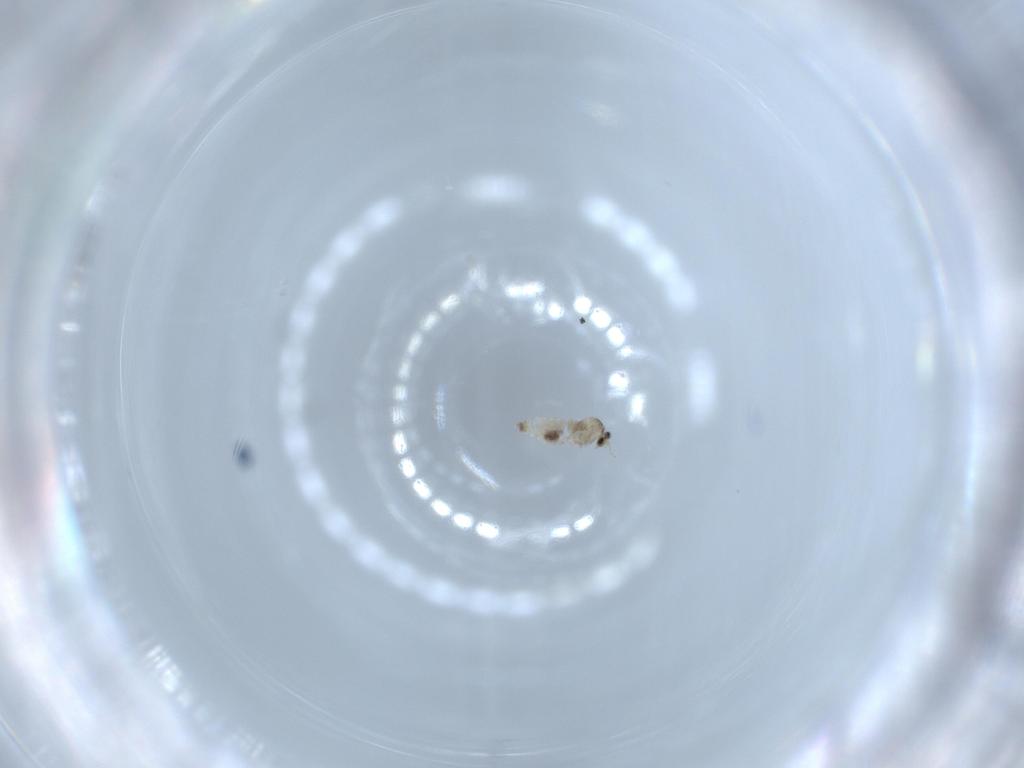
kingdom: Animalia
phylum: Arthropoda
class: Insecta
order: Diptera
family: Cecidomyiidae
